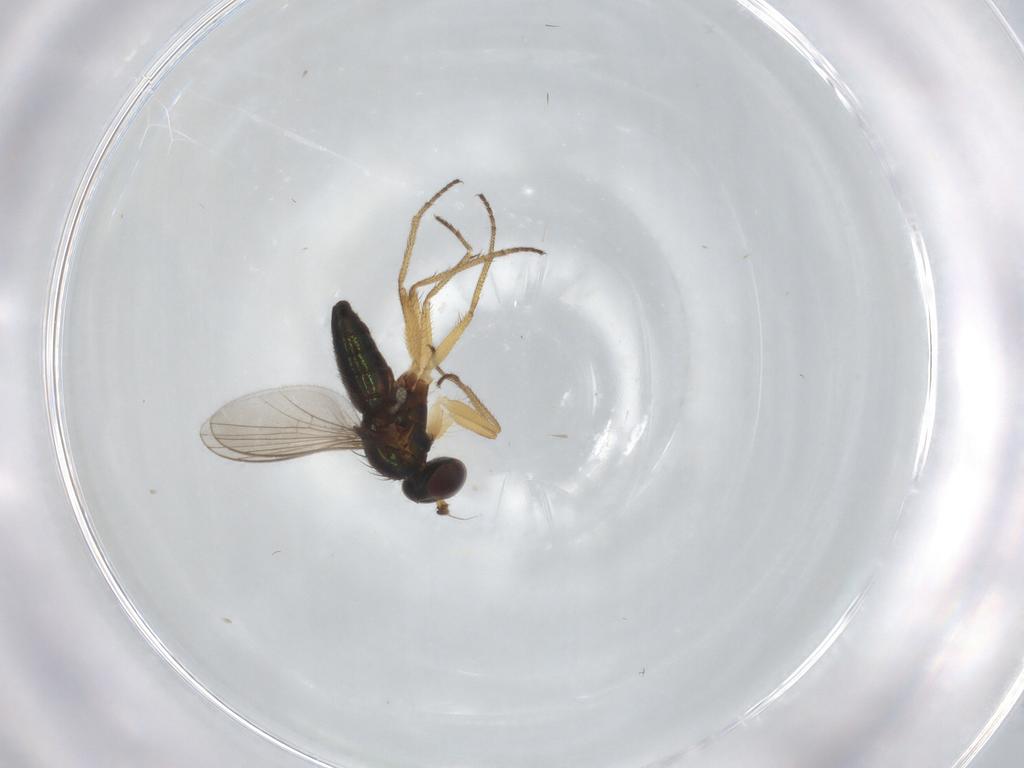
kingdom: Animalia
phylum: Arthropoda
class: Insecta
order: Diptera
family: Dolichopodidae
